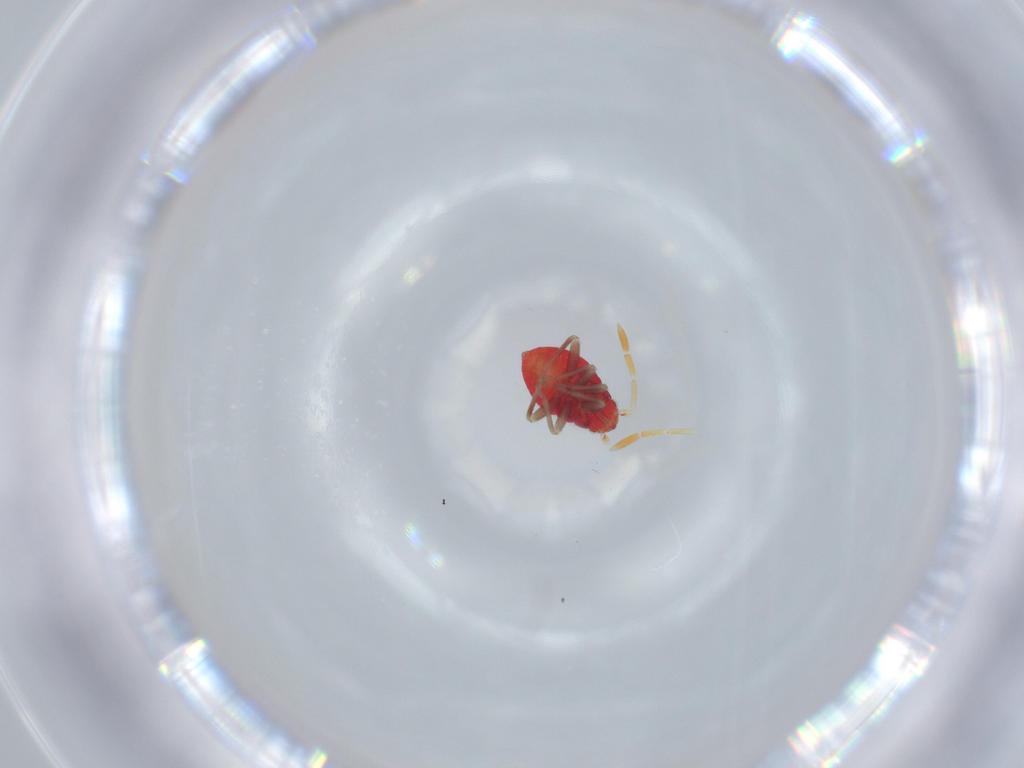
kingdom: Animalia
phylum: Arthropoda
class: Insecta
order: Hemiptera
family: Miridae
